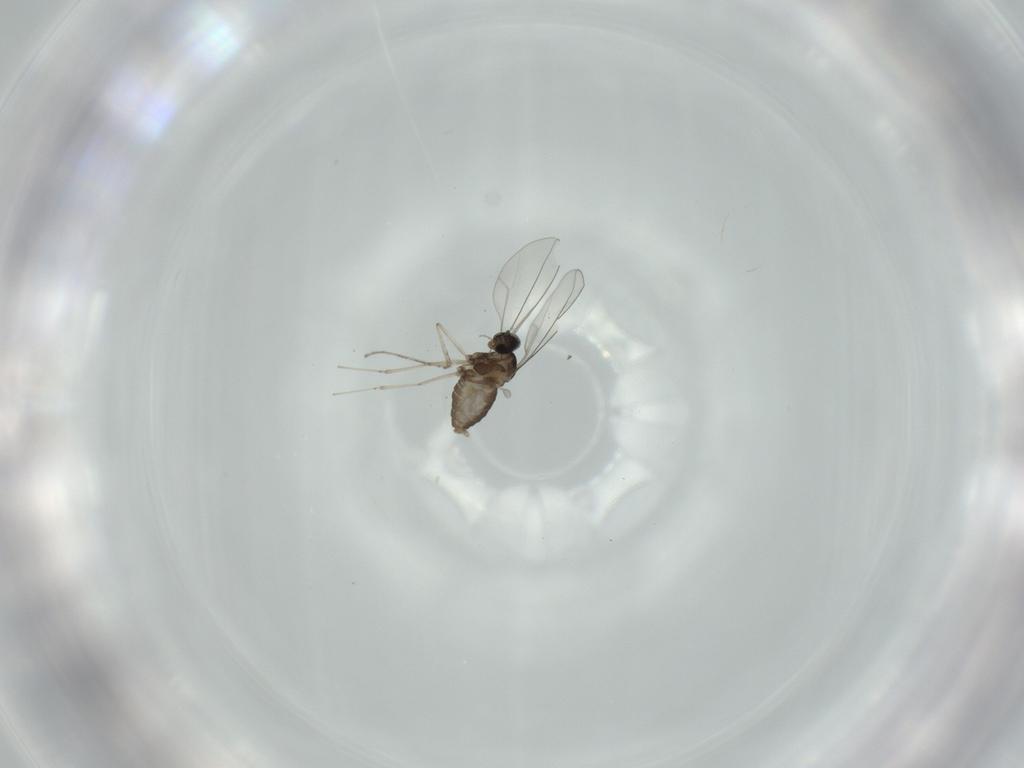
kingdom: Animalia
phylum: Arthropoda
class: Insecta
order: Diptera
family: Cecidomyiidae
